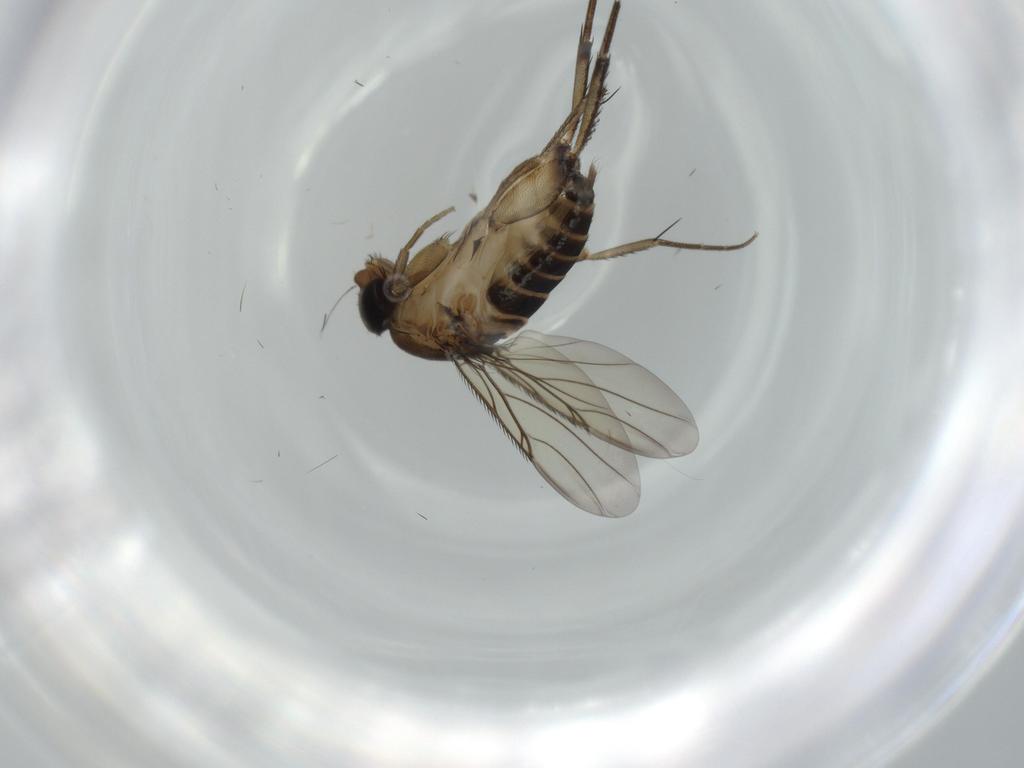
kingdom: Animalia
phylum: Arthropoda
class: Insecta
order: Diptera
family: Phoridae
